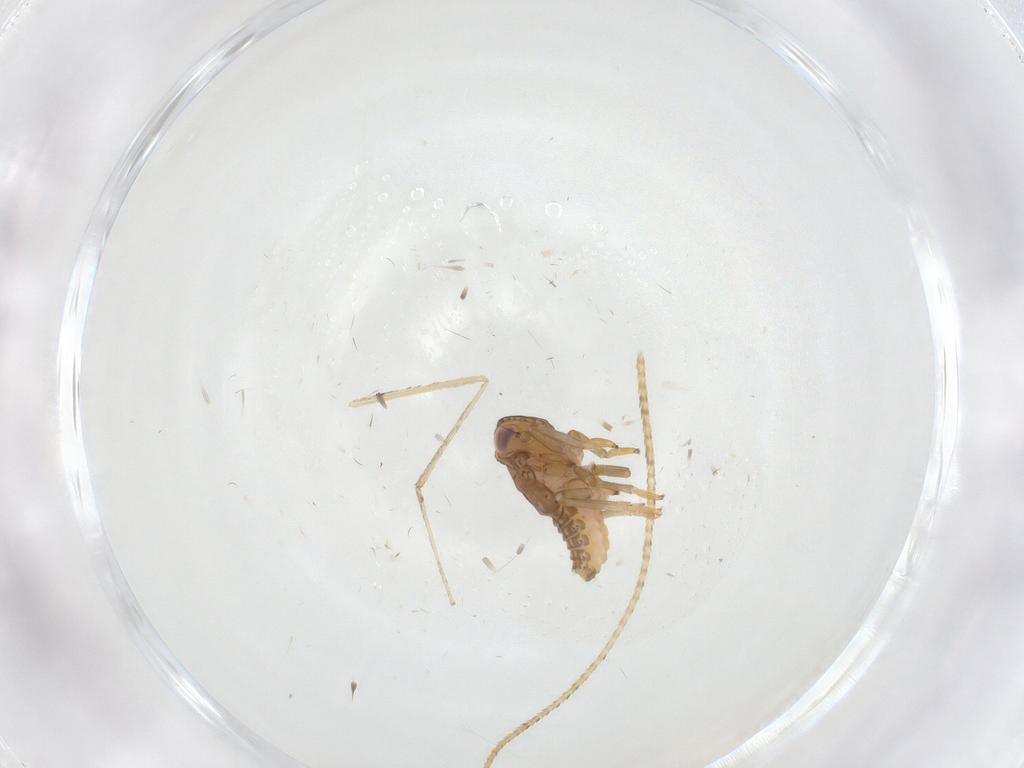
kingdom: Animalia
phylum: Arthropoda
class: Insecta
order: Hemiptera
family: Issidae
